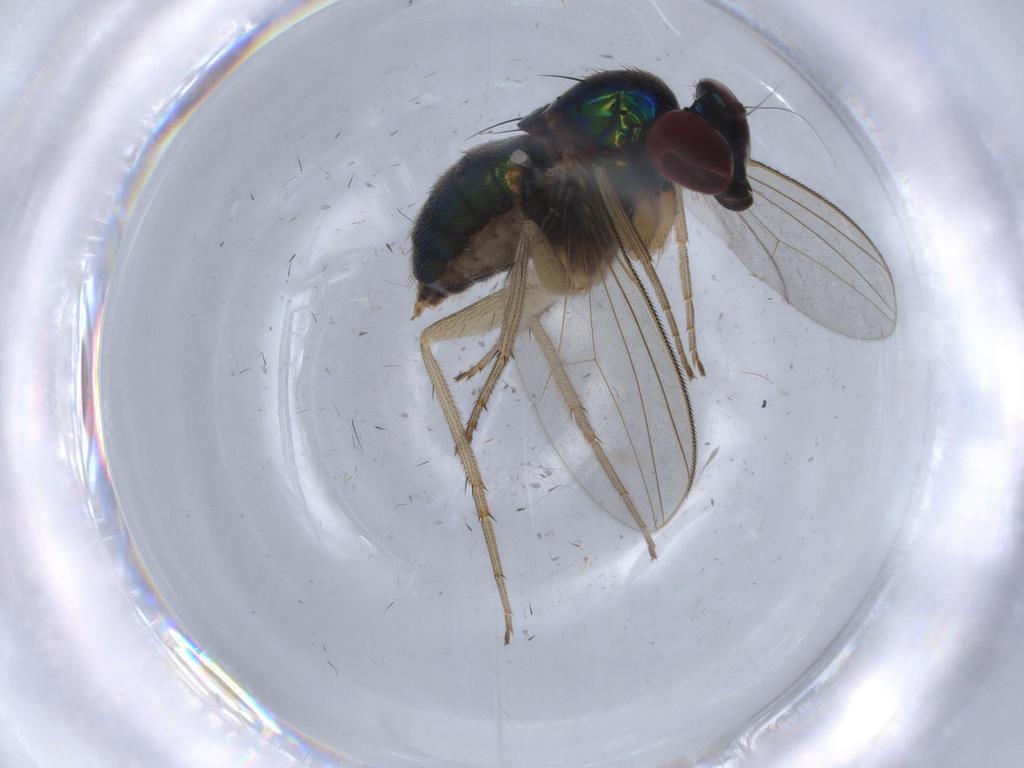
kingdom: Animalia
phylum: Arthropoda
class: Insecta
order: Diptera
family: Dolichopodidae
